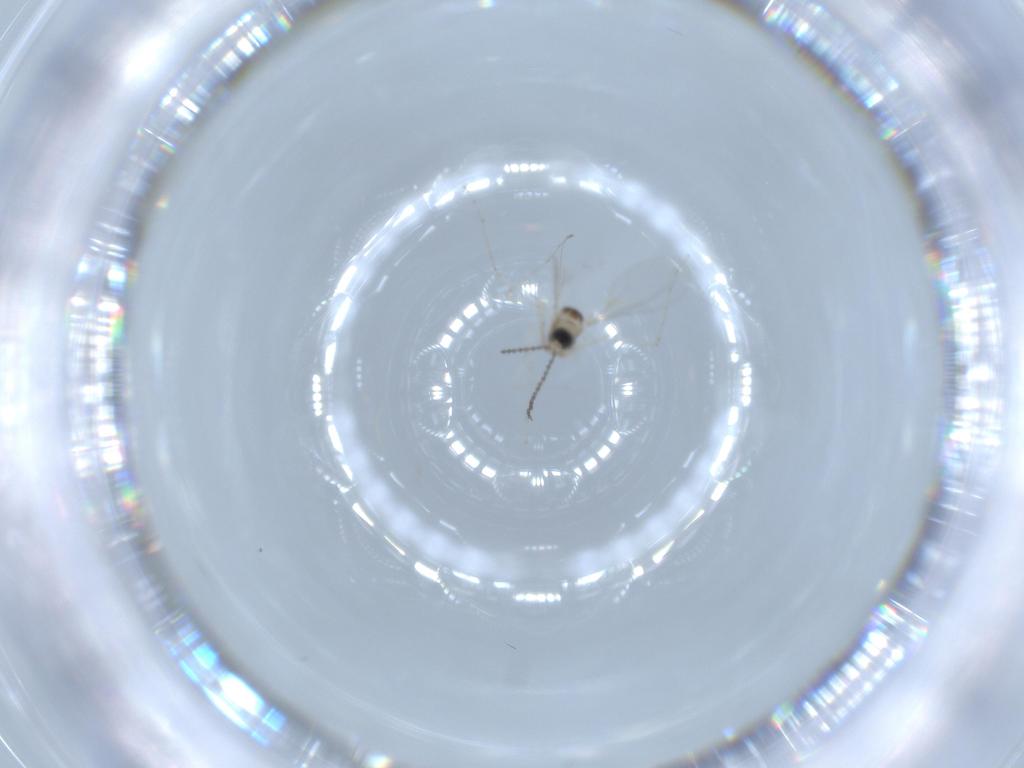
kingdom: Animalia
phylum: Arthropoda
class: Insecta
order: Diptera
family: Cecidomyiidae
